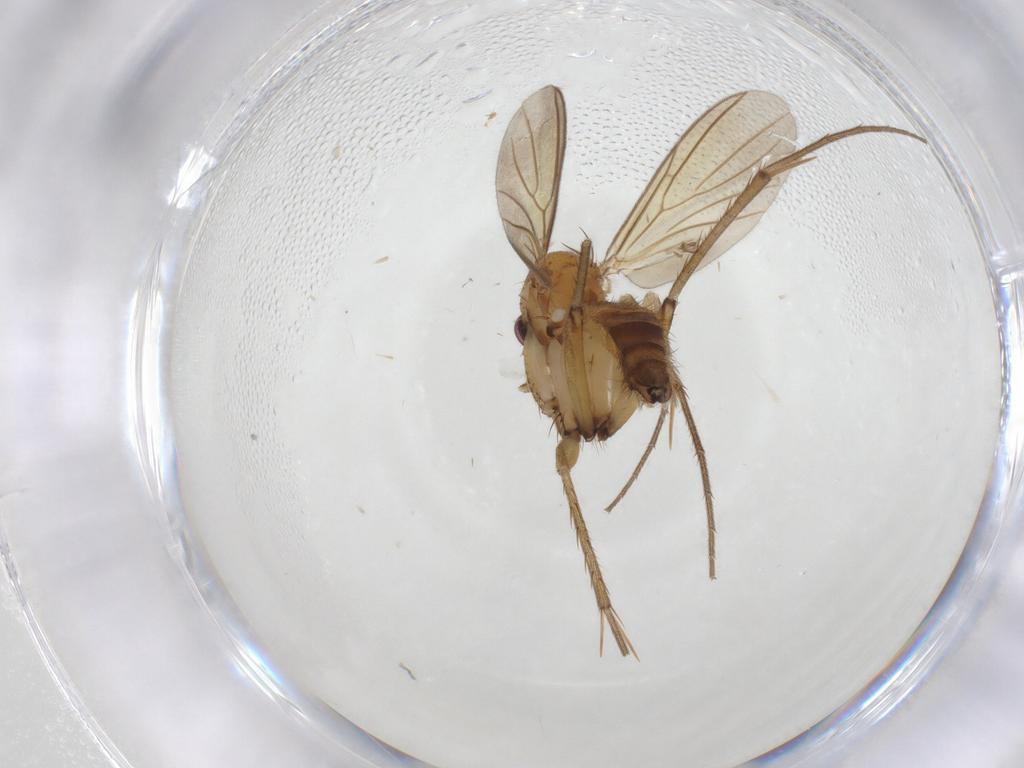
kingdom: Animalia
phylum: Arthropoda
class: Insecta
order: Diptera
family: Mycetophilidae
